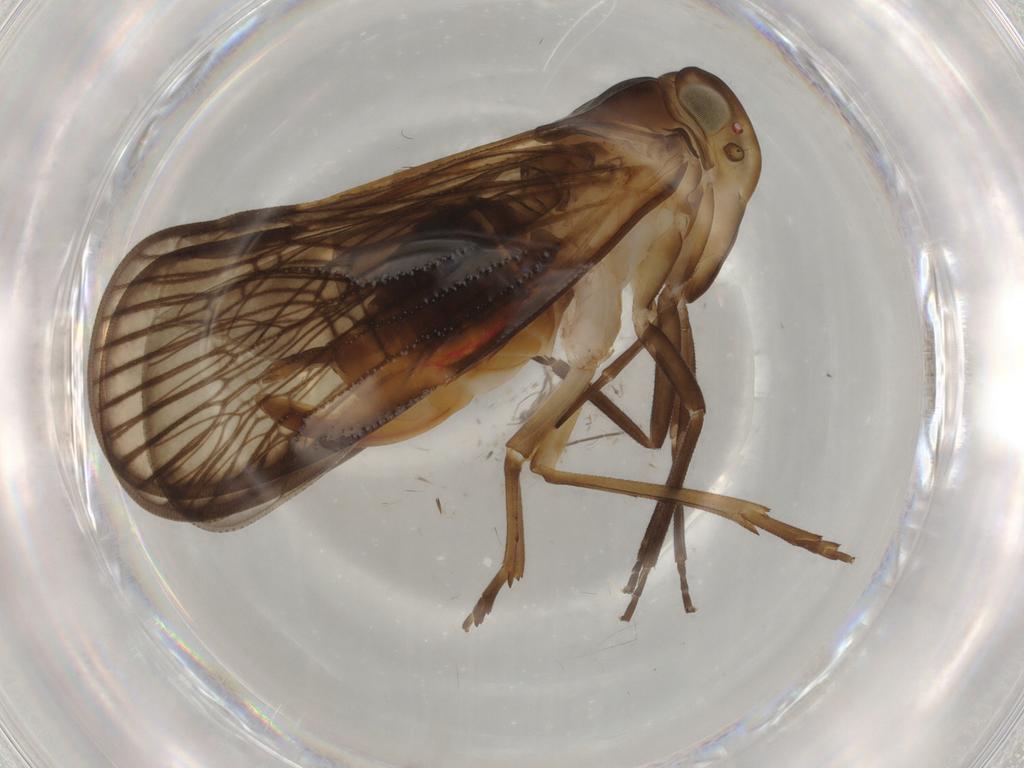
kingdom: Animalia
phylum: Arthropoda
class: Insecta
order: Hemiptera
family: Cixiidae
